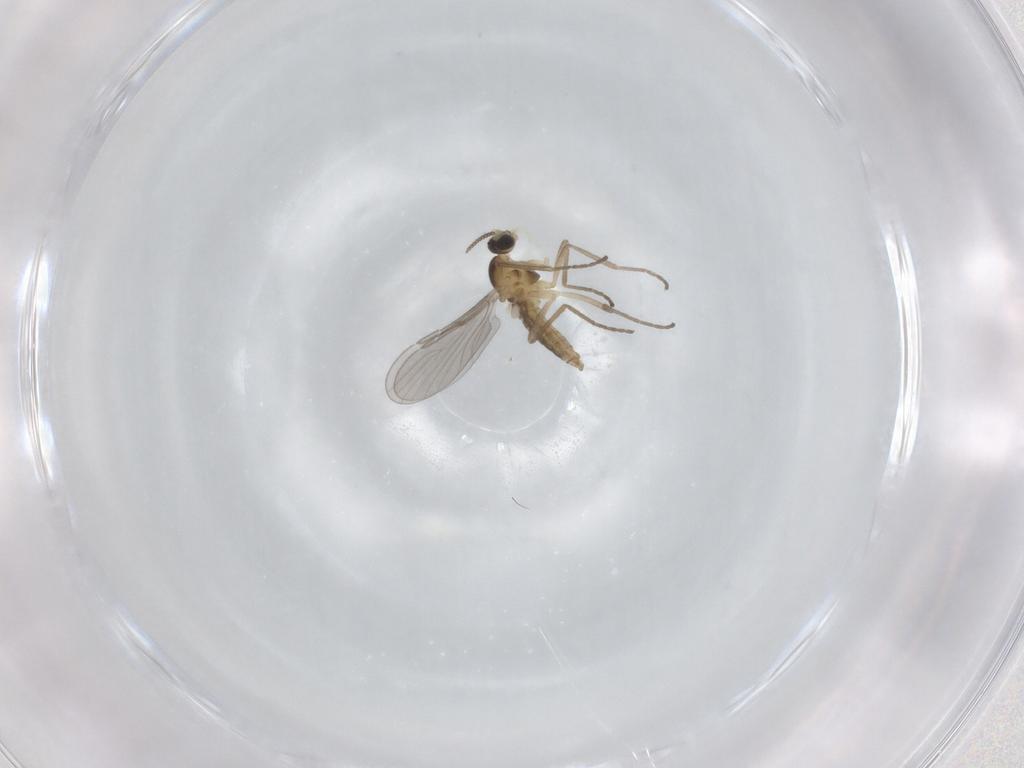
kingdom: Animalia
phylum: Arthropoda
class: Insecta
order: Diptera
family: Cecidomyiidae
